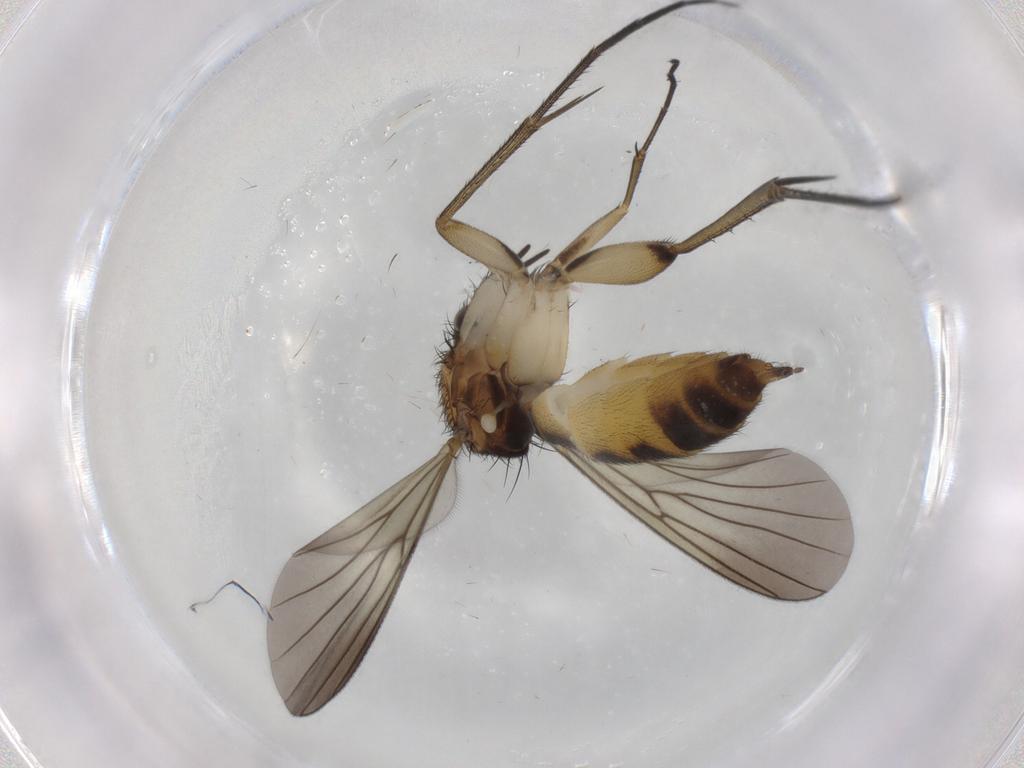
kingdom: Animalia
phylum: Arthropoda
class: Insecta
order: Diptera
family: Mycetophilidae
